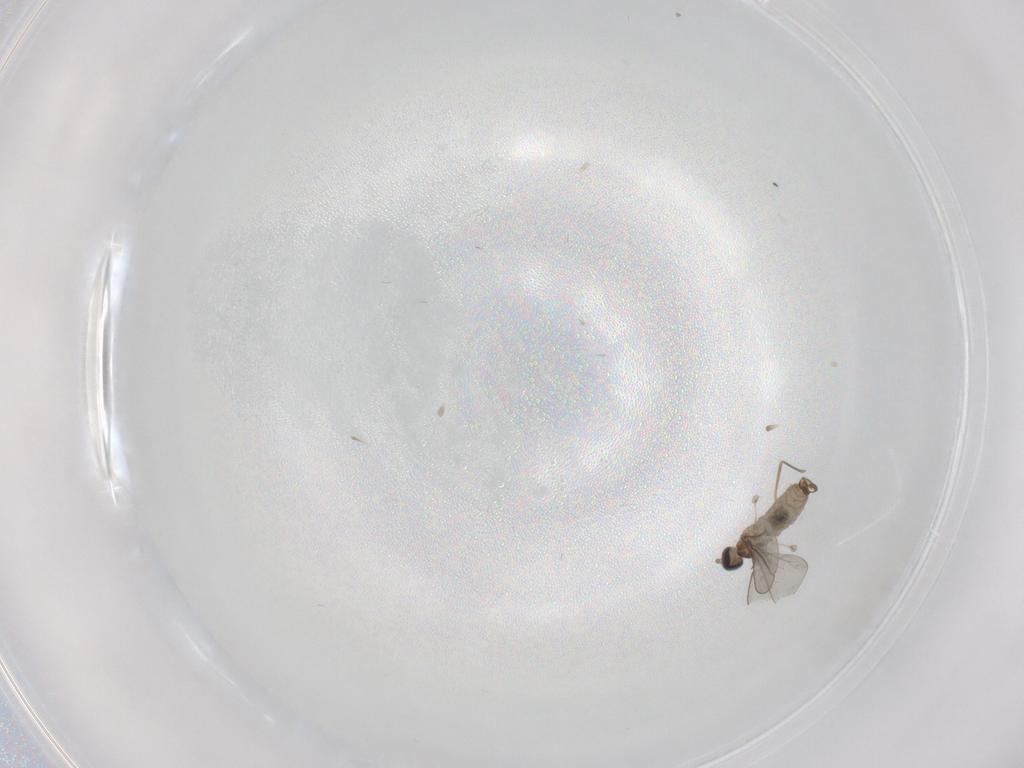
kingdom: Animalia
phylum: Arthropoda
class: Insecta
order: Diptera
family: Cecidomyiidae
